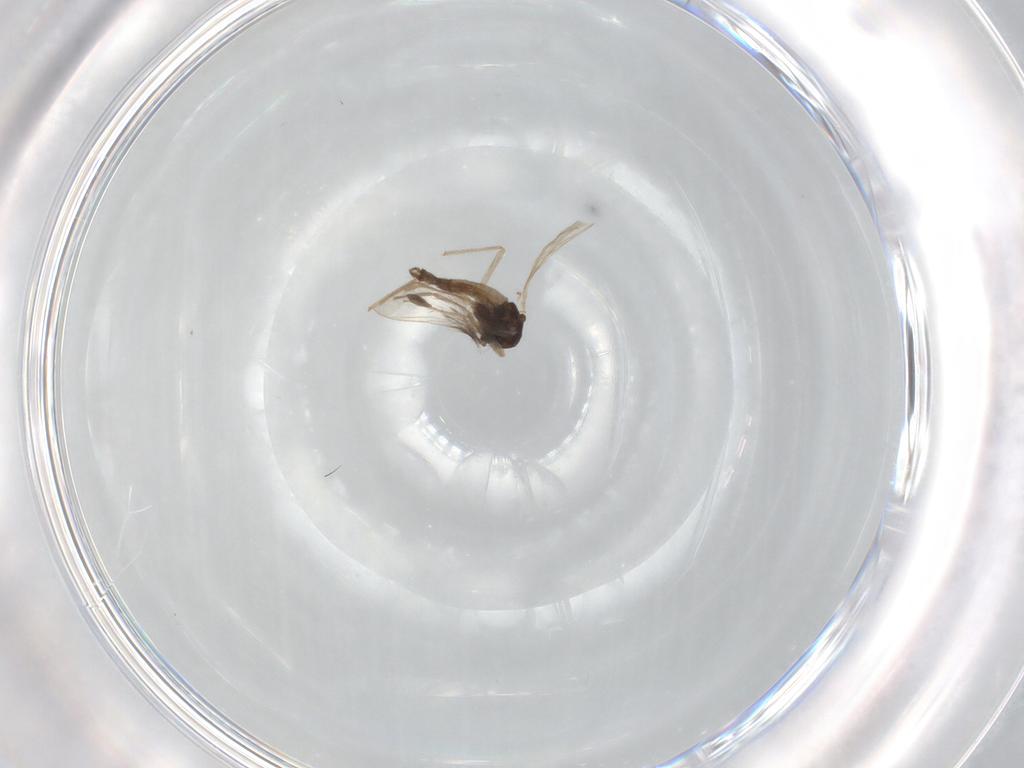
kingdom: Animalia
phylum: Arthropoda
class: Insecta
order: Diptera
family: Chironomidae
